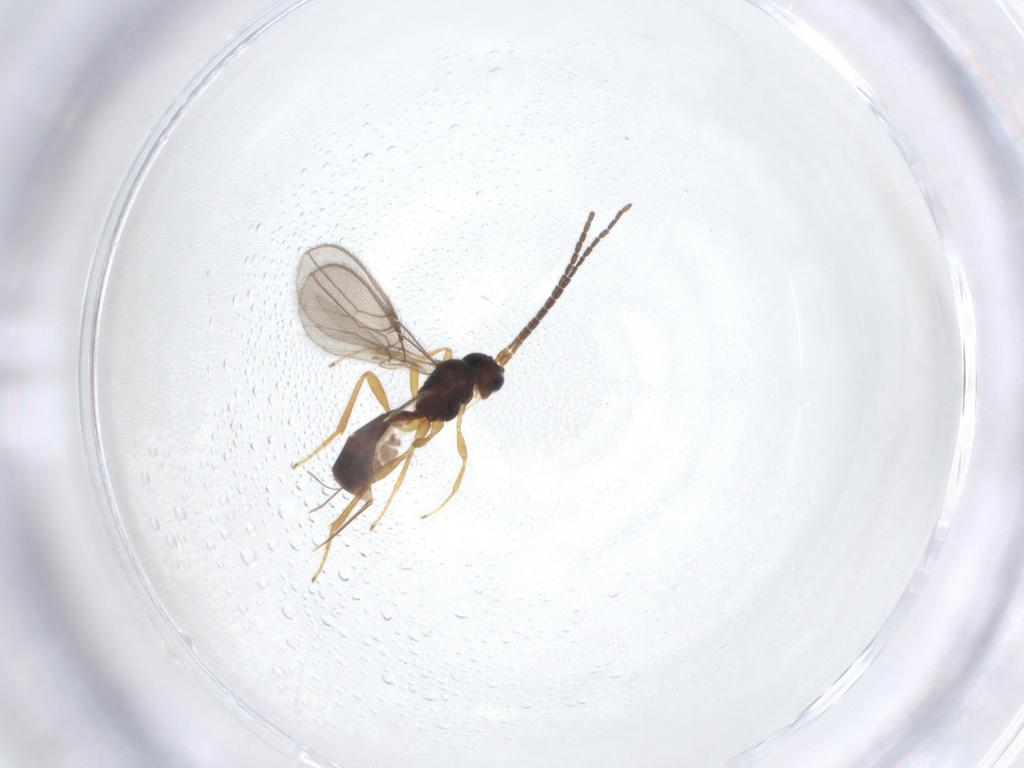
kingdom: Animalia
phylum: Arthropoda
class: Insecta
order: Hymenoptera
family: Braconidae
